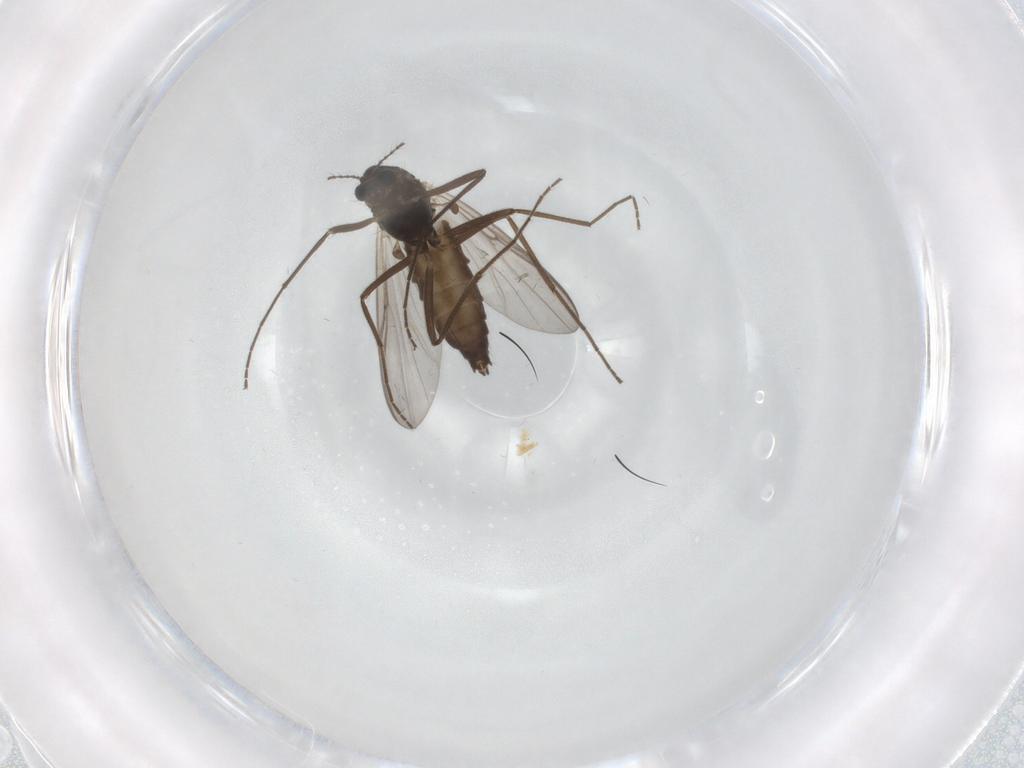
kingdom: Animalia
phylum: Arthropoda
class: Insecta
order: Diptera
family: Chironomidae
